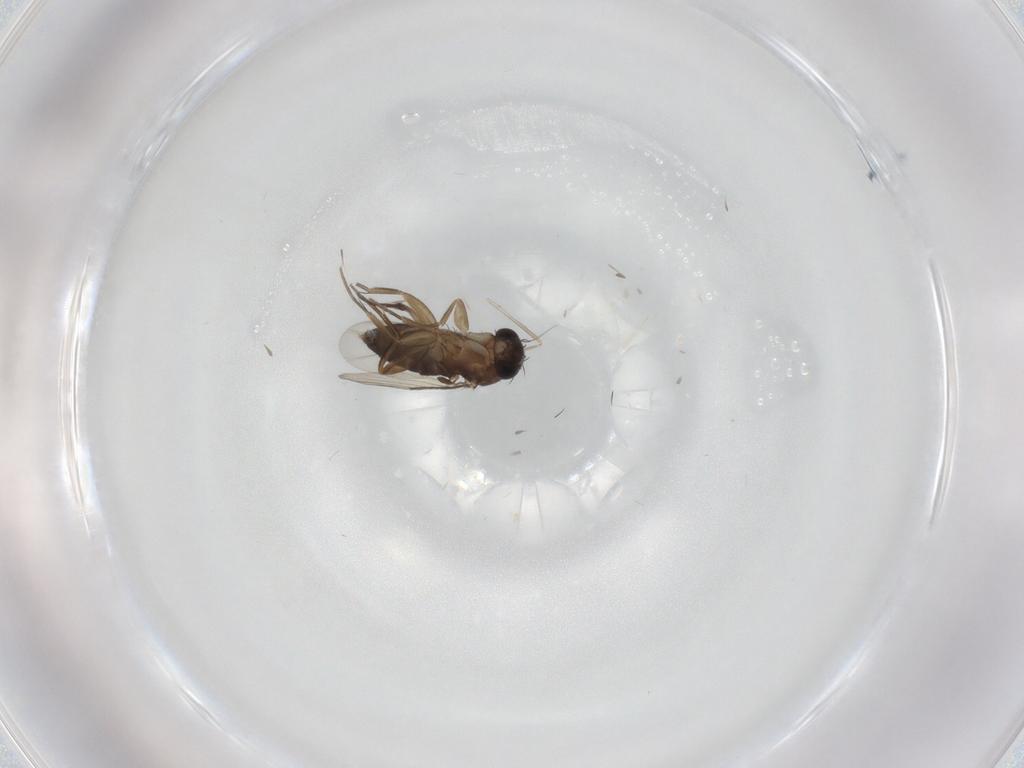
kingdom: Animalia
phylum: Arthropoda
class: Insecta
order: Diptera
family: Phoridae
